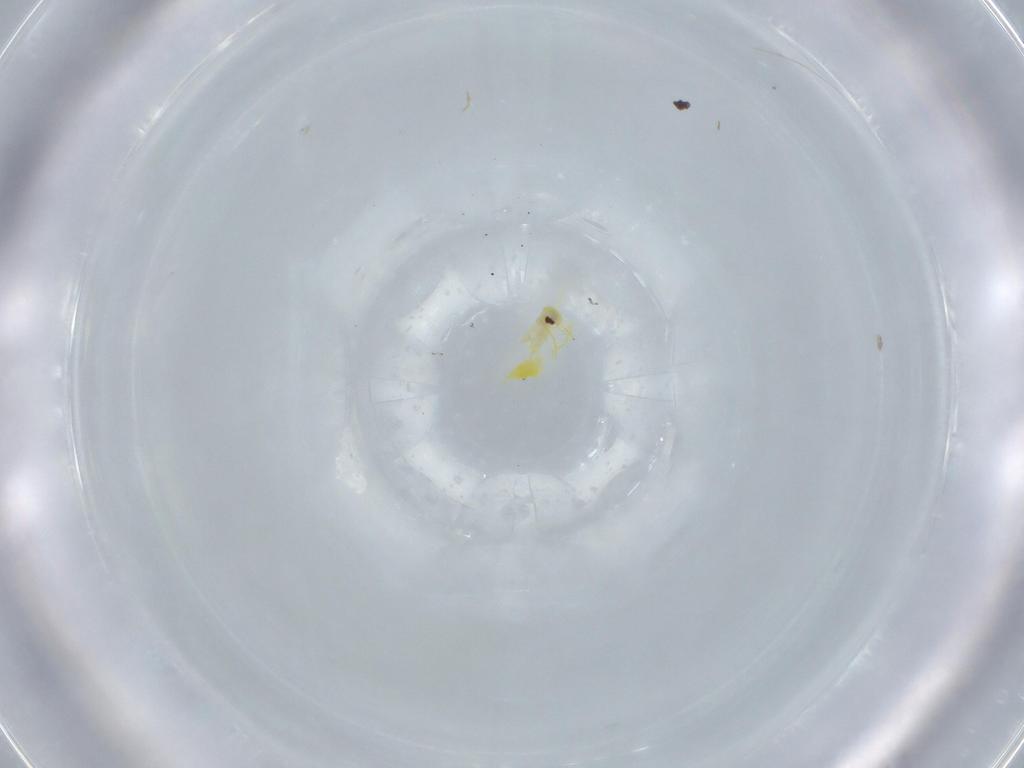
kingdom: Animalia
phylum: Arthropoda
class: Insecta
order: Hemiptera
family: Aleyrodidae
